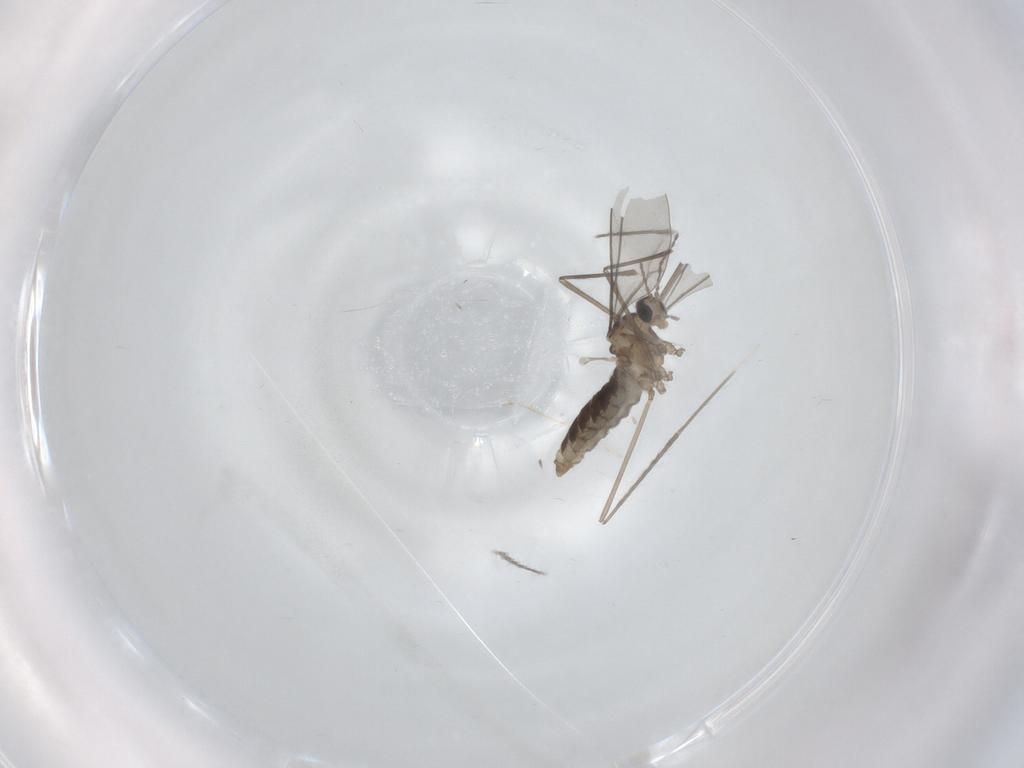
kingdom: Animalia
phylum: Arthropoda
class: Insecta
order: Diptera
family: Cecidomyiidae
